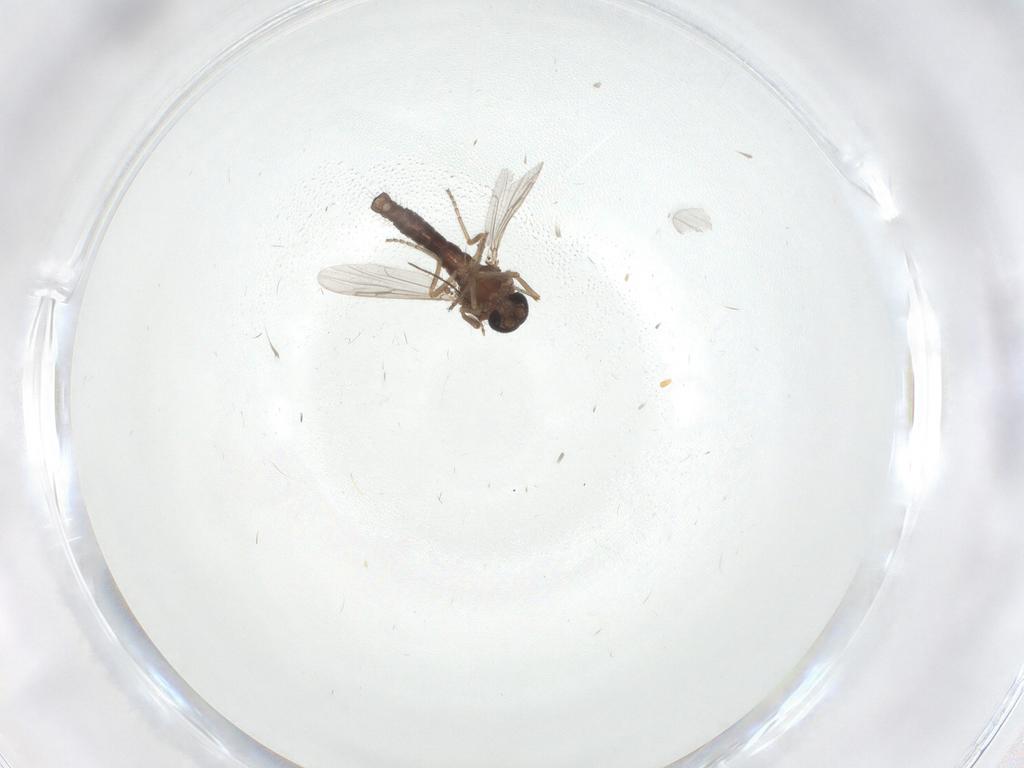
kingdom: Animalia
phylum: Arthropoda
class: Insecta
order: Diptera
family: Ceratopogonidae
